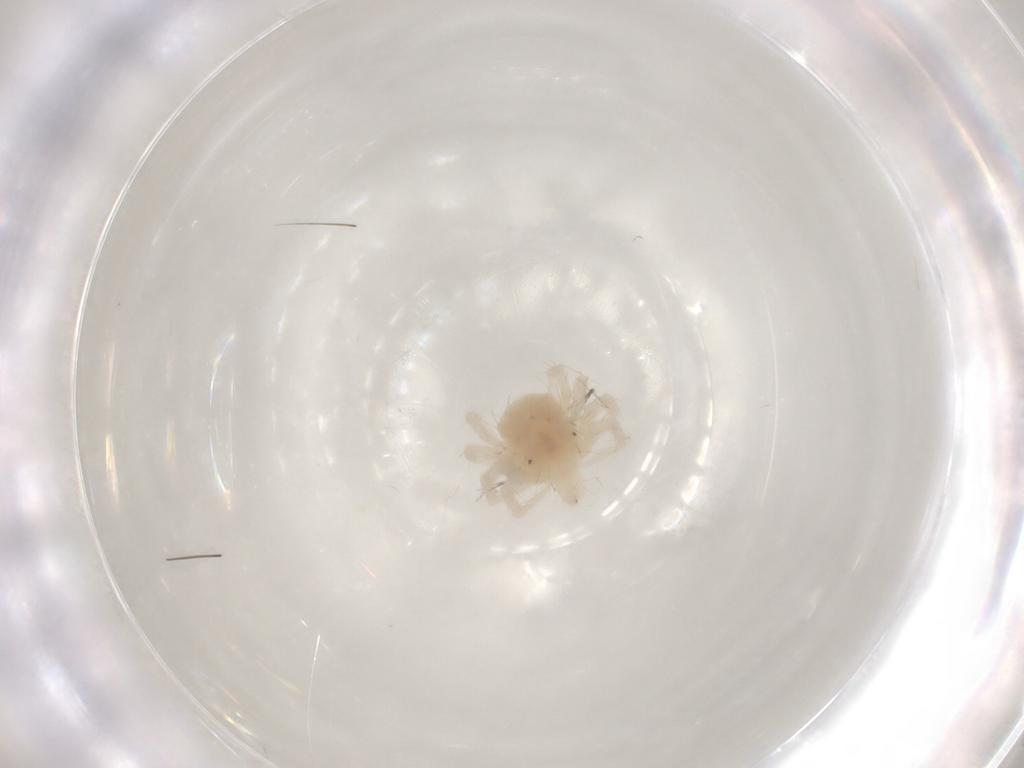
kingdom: Animalia
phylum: Arthropoda
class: Arachnida
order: Trombidiformes
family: Anystidae
